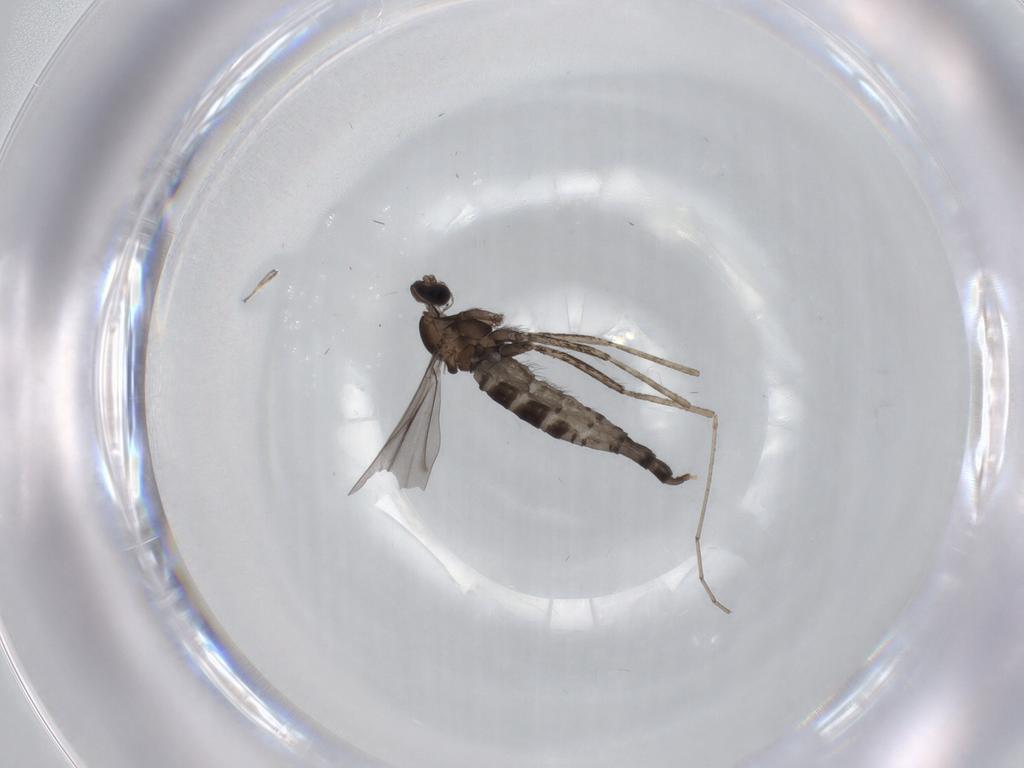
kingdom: Animalia
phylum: Arthropoda
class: Insecta
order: Diptera
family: Cecidomyiidae
